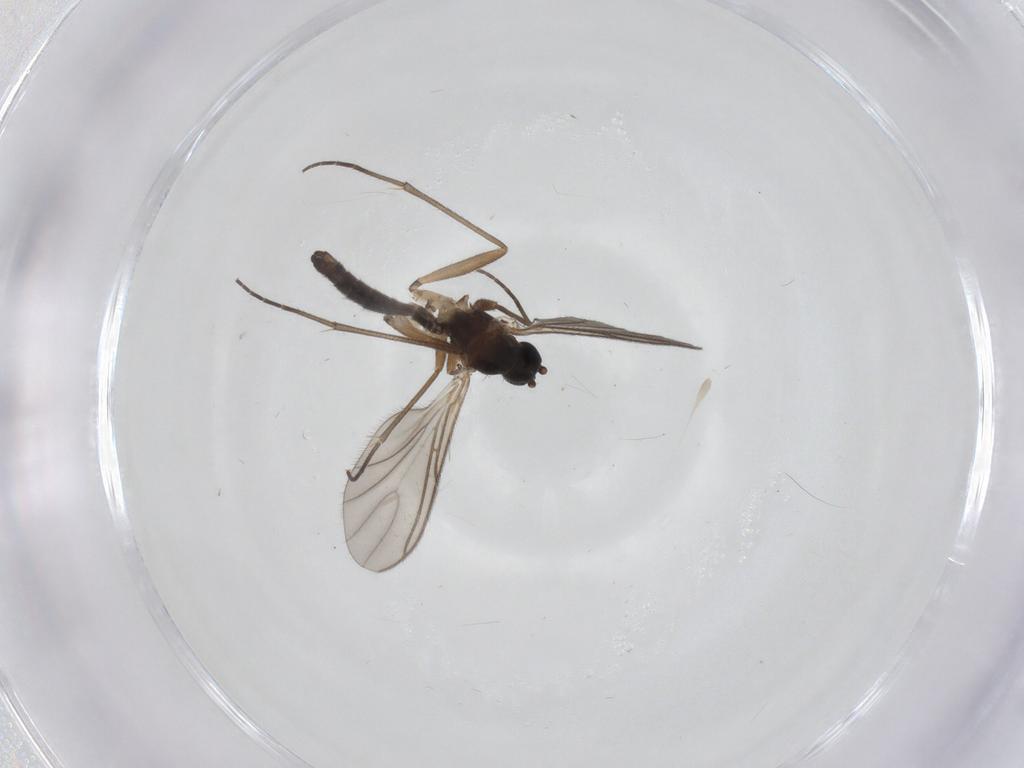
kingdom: Animalia
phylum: Arthropoda
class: Insecta
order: Diptera
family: Sciaridae
